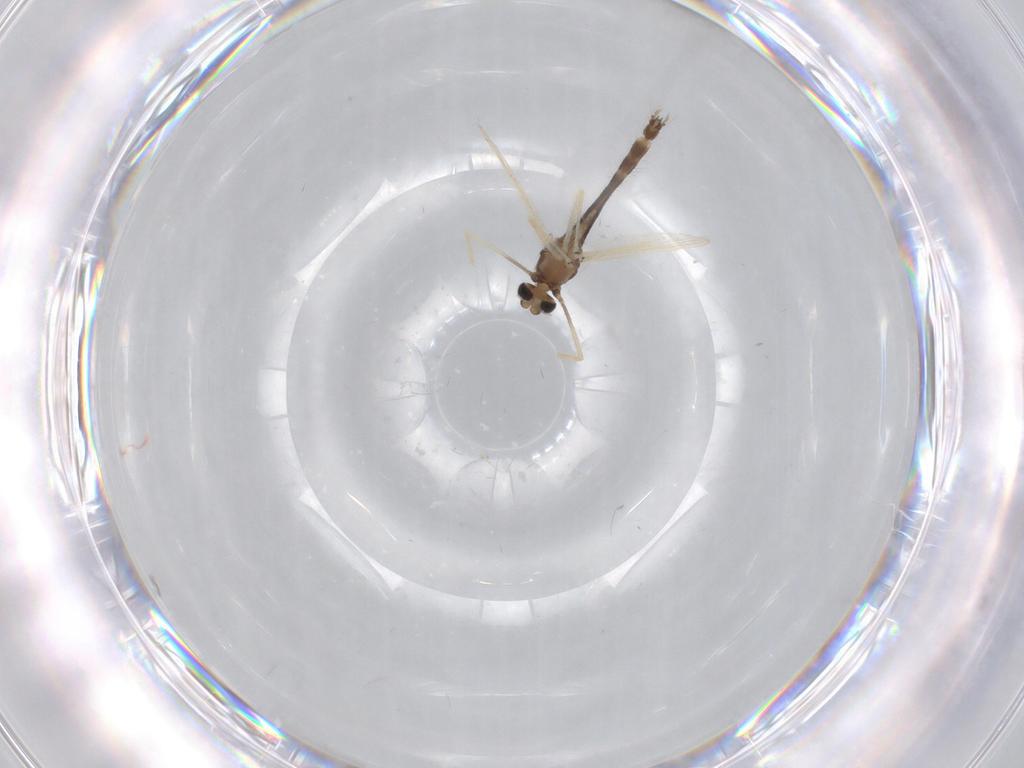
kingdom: Animalia
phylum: Arthropoda
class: Insecta
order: Diptera
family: Chironomidae
